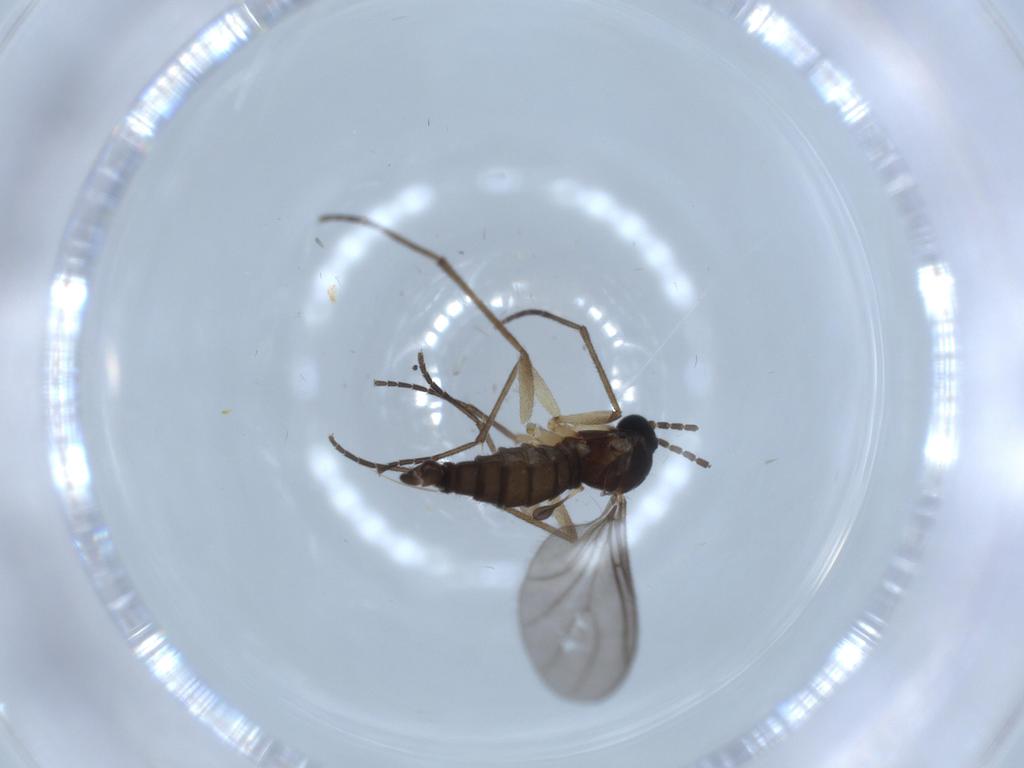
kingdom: Animalia
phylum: Arthropoda
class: Insecta
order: Diptera
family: Sciaridae
